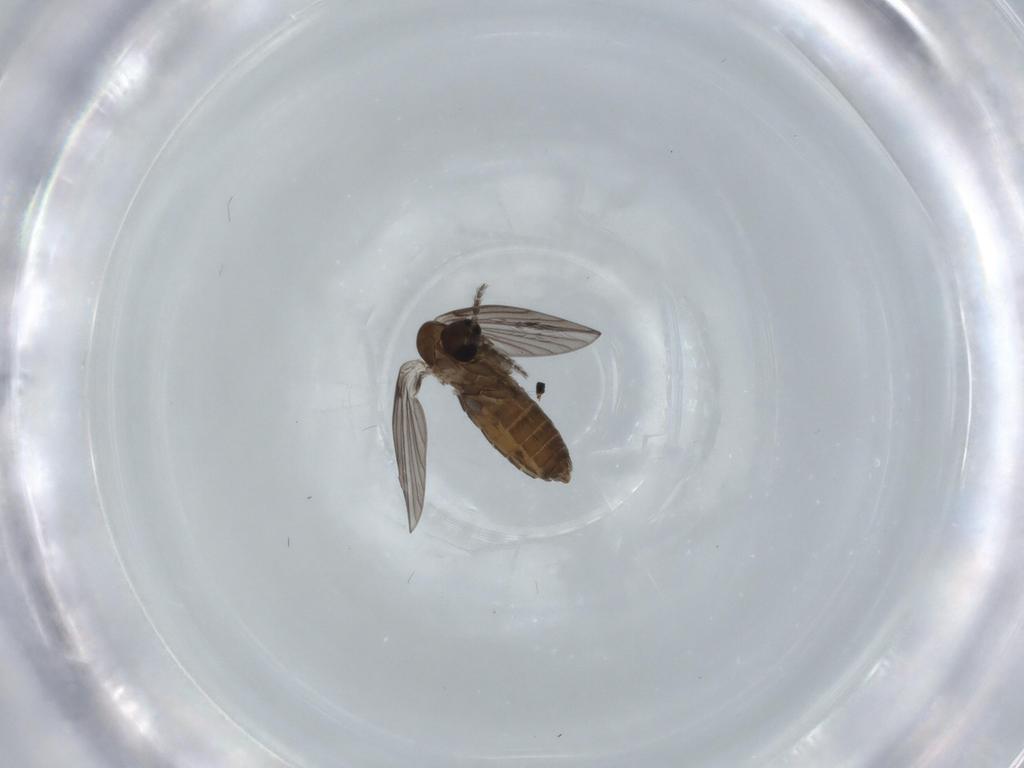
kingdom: Animalia
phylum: Arthropoda
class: Insecta
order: Diptera
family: Psychodidae
